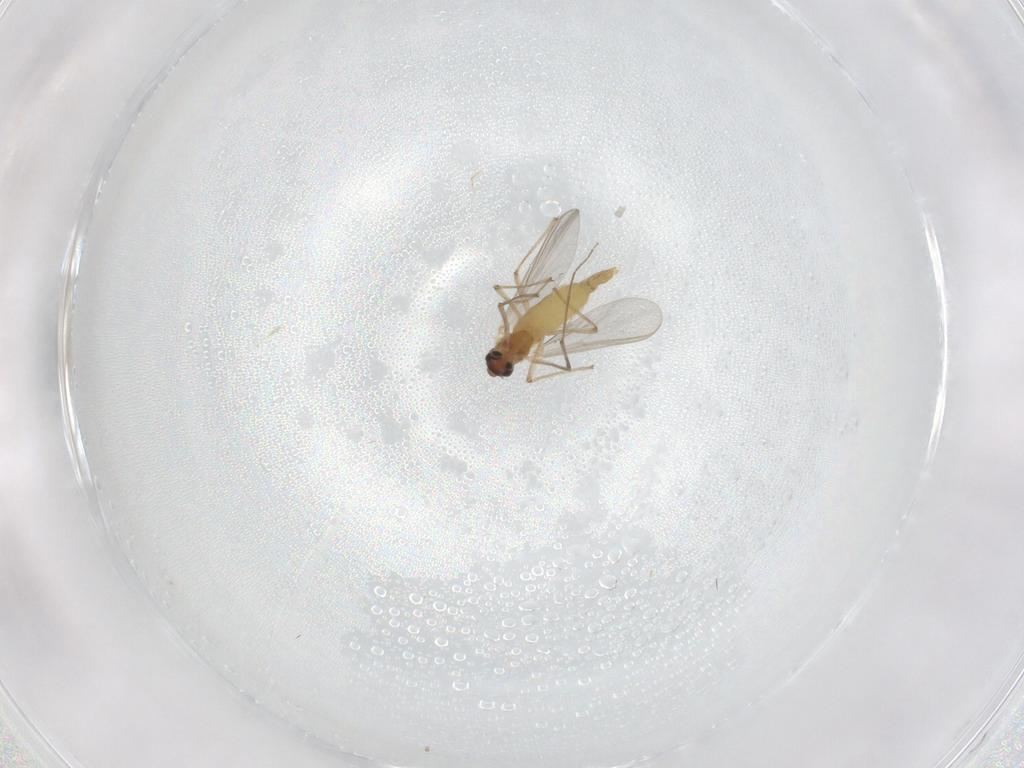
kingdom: Animalia
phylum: Arthropoda
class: Insecta
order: Diptera
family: Chironomidae
